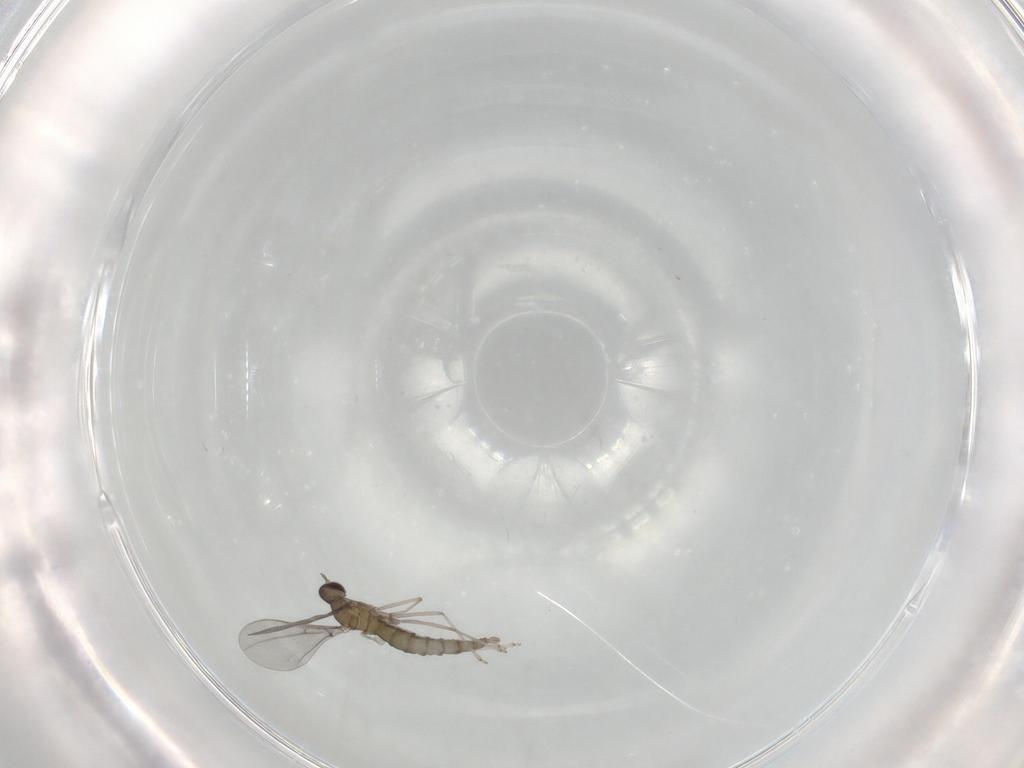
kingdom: Animalia
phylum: Arthropoda
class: Insecta
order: Diptera
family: Cecidomyiidae
